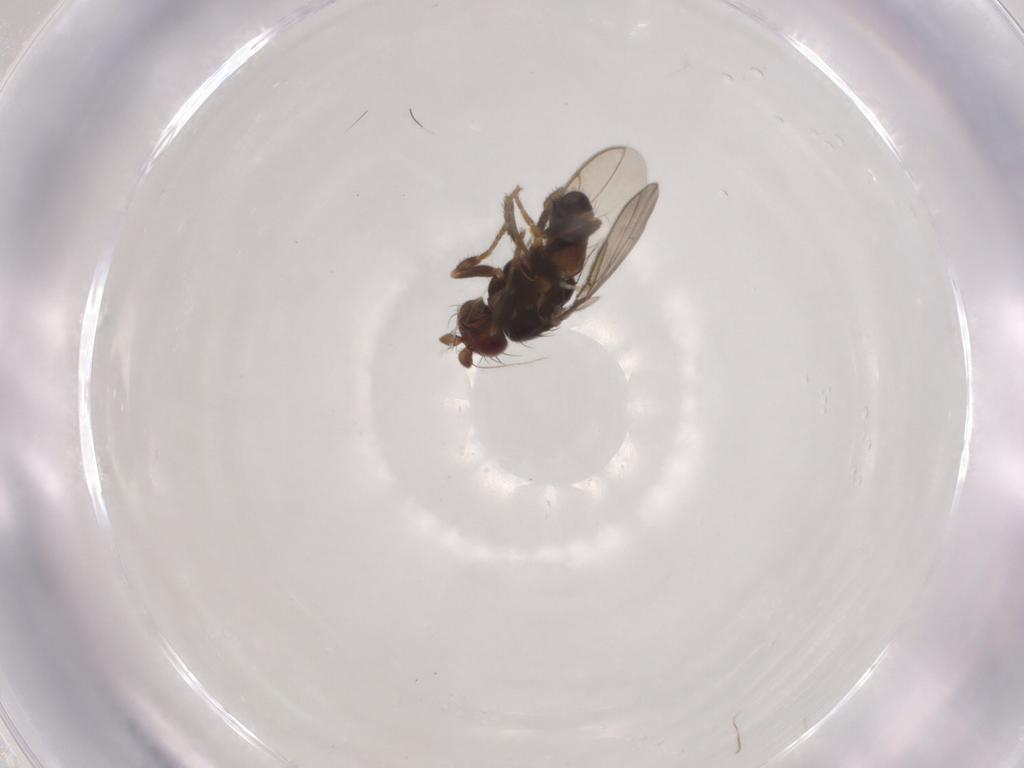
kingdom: Animalia
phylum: Arthropoda
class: Insecta
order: Diptera
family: Sphaeroceridae
